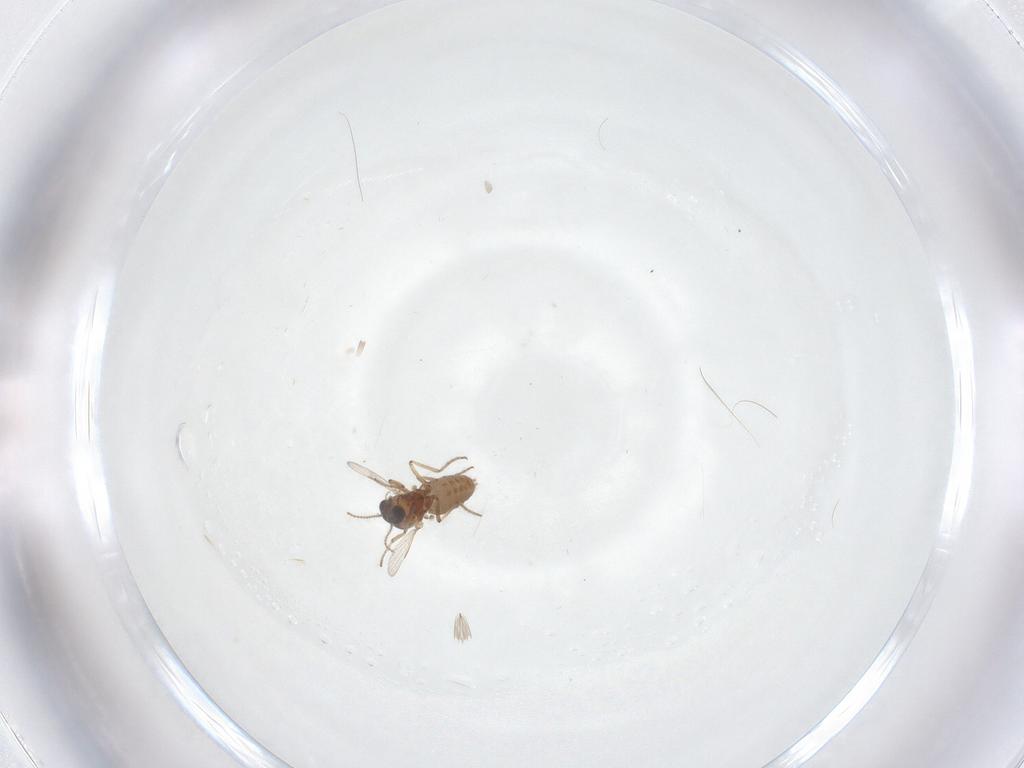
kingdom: Animalia
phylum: Arthropoda
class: Insecta
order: Diptera
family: Ceratopogonidae
